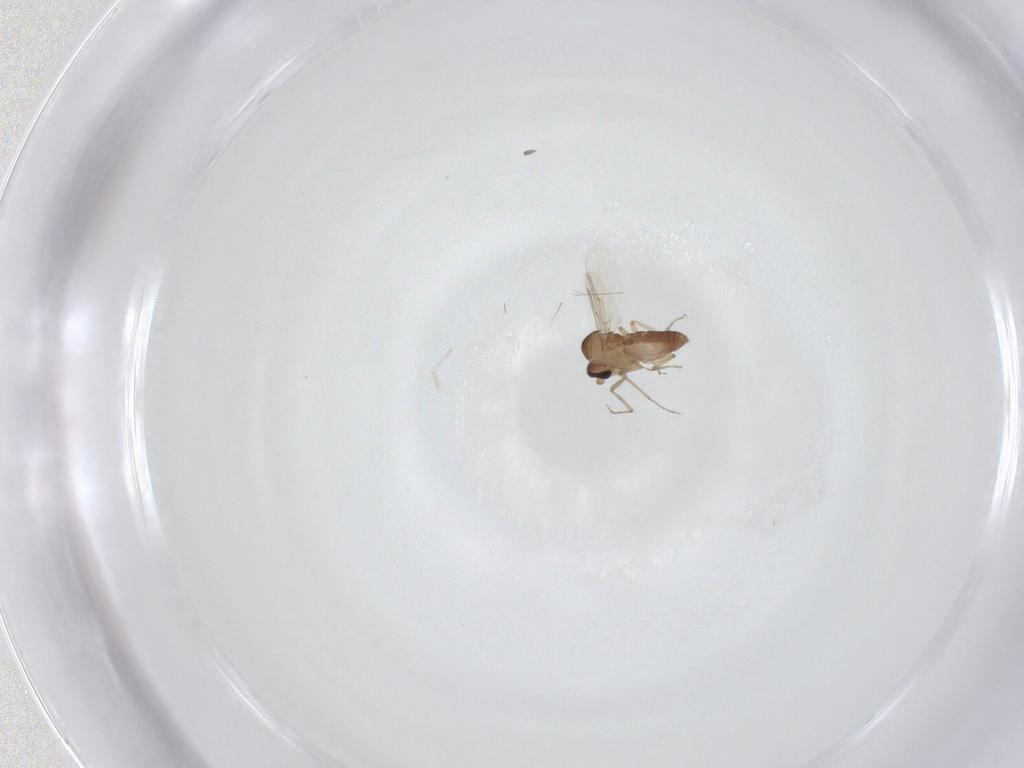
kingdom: Animalia
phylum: Arthropoda
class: Insecta
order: Diptera
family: Ceratopogonidae
